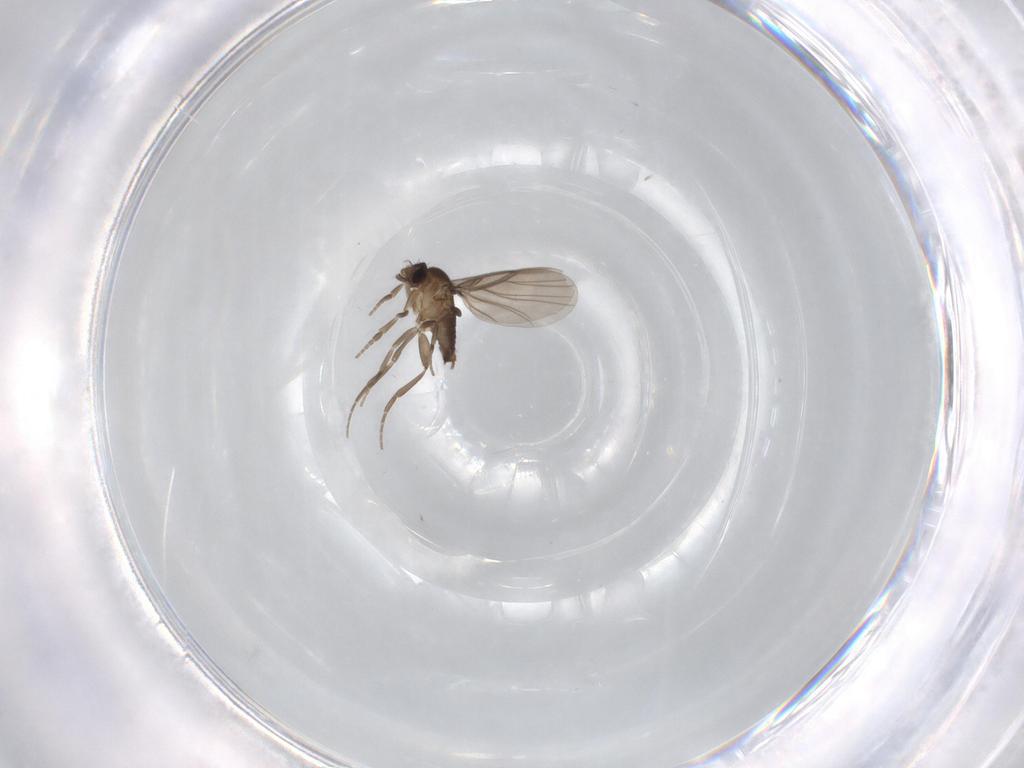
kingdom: Animalia
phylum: Arthropoda
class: Insecta
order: Diptera
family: Phoridae
